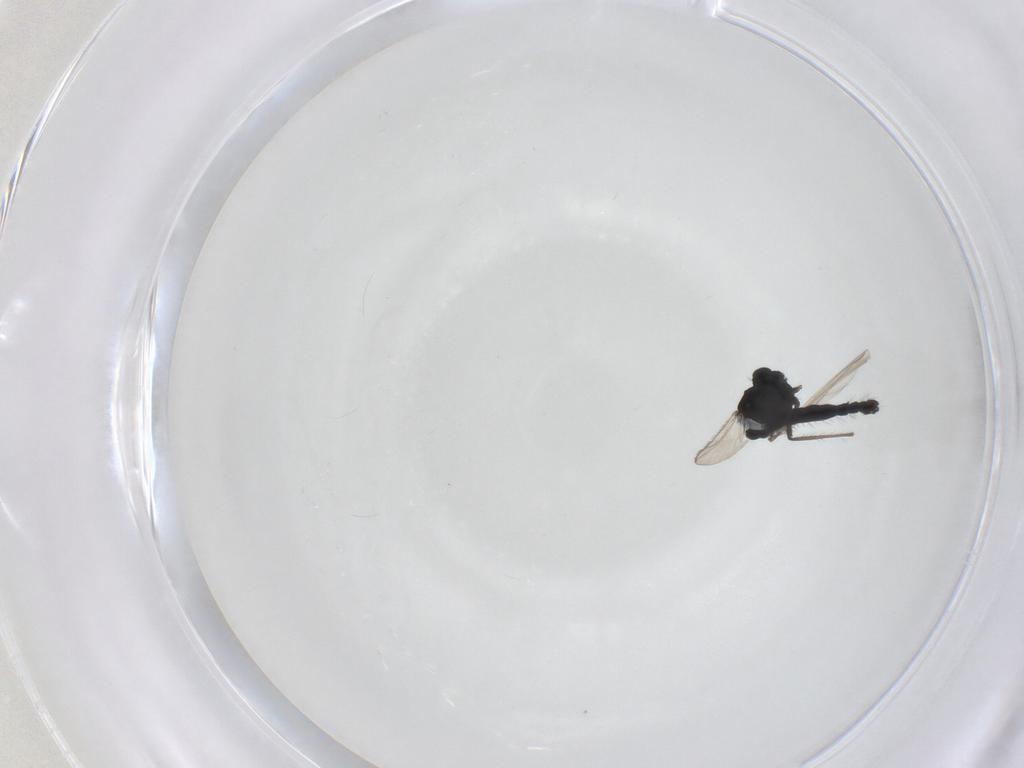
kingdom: Animalia
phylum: Arthropoda
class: Insecta
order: Diptera
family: Chironomidae
